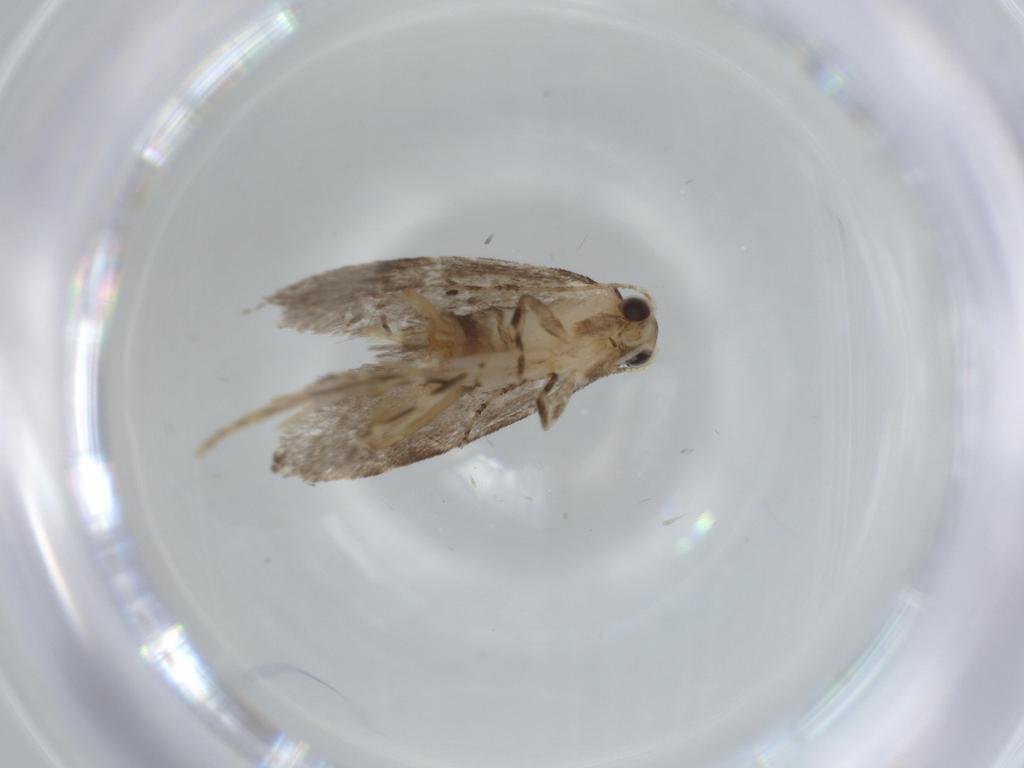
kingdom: Animalia
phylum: Arthropoda
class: Insecta
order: Lepidoptera
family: Tineidae
